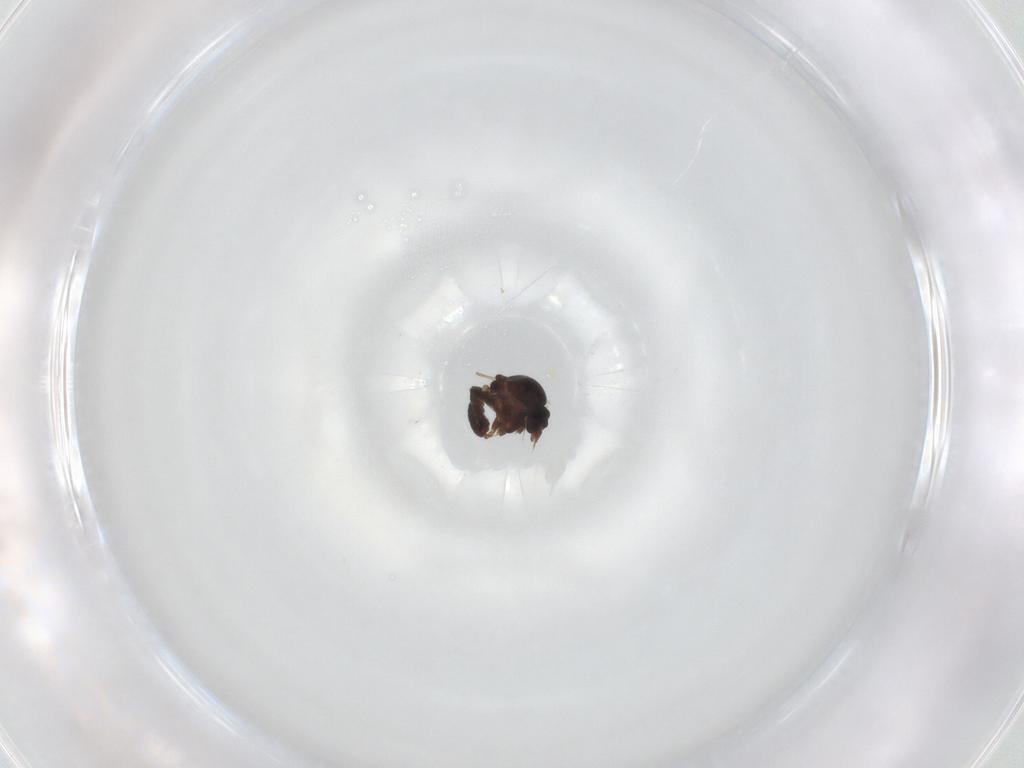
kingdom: Animalia
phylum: Arthropoda
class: Insecta
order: Diptera
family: Ceratopogonidae
